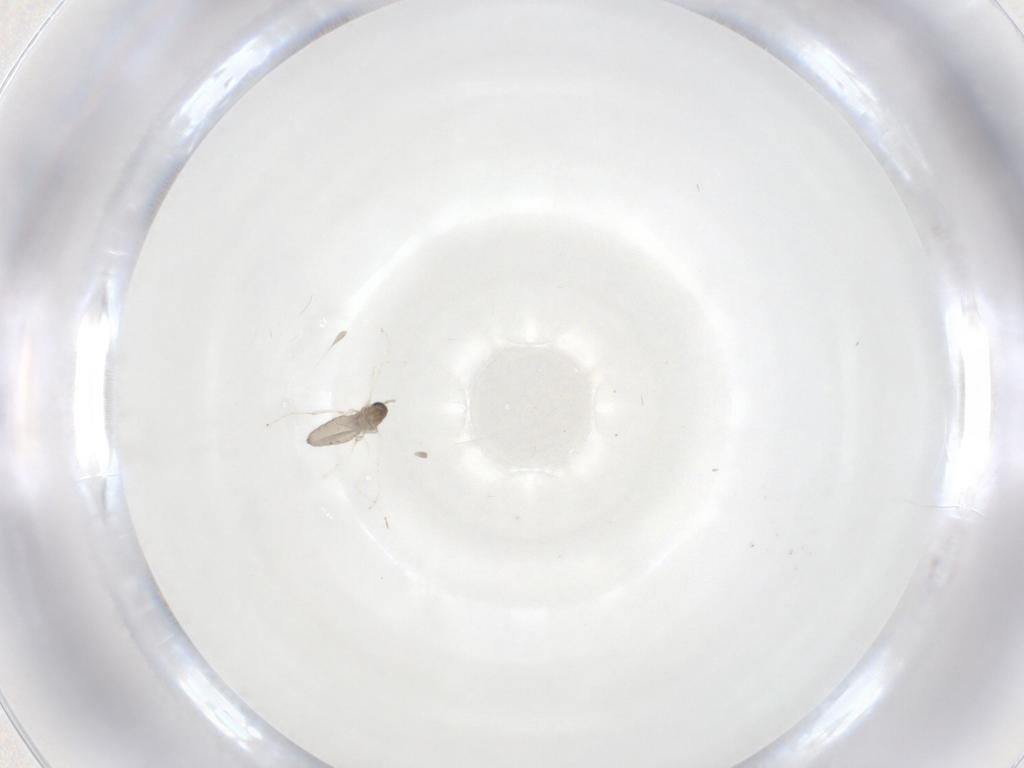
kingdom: Animalia
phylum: Arthropoda
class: Insecta
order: Diptera
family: Cecidomyiidae
